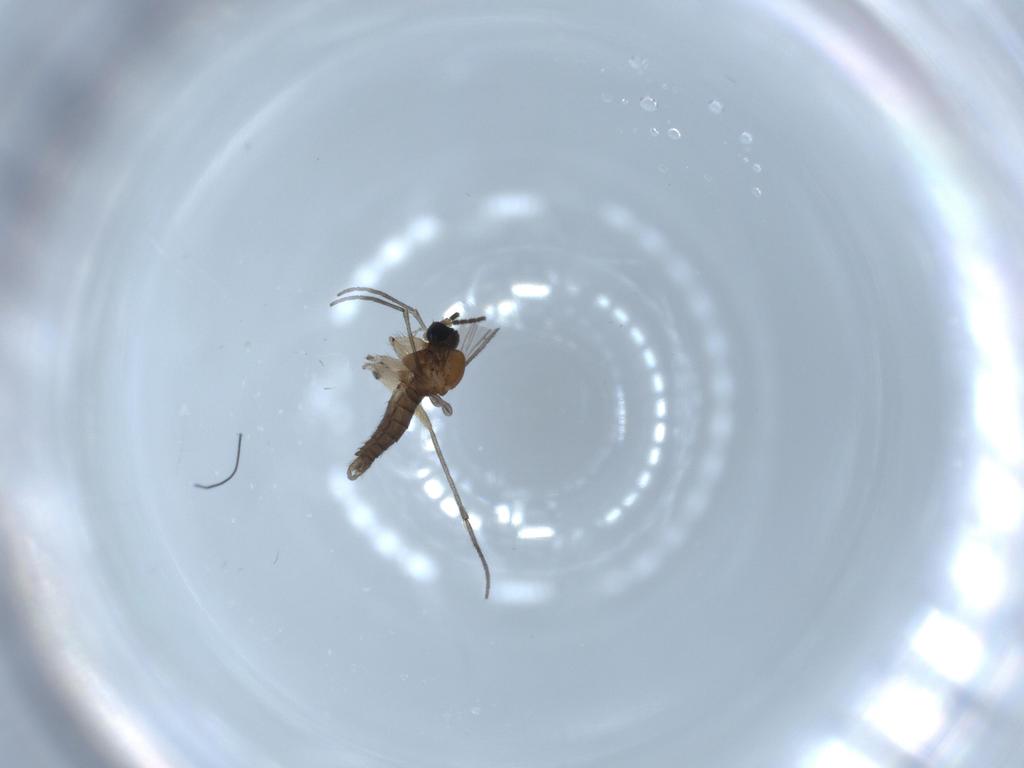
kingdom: Animalia
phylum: Arthropoda
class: Insecta
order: Diptera
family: Sciaridae
